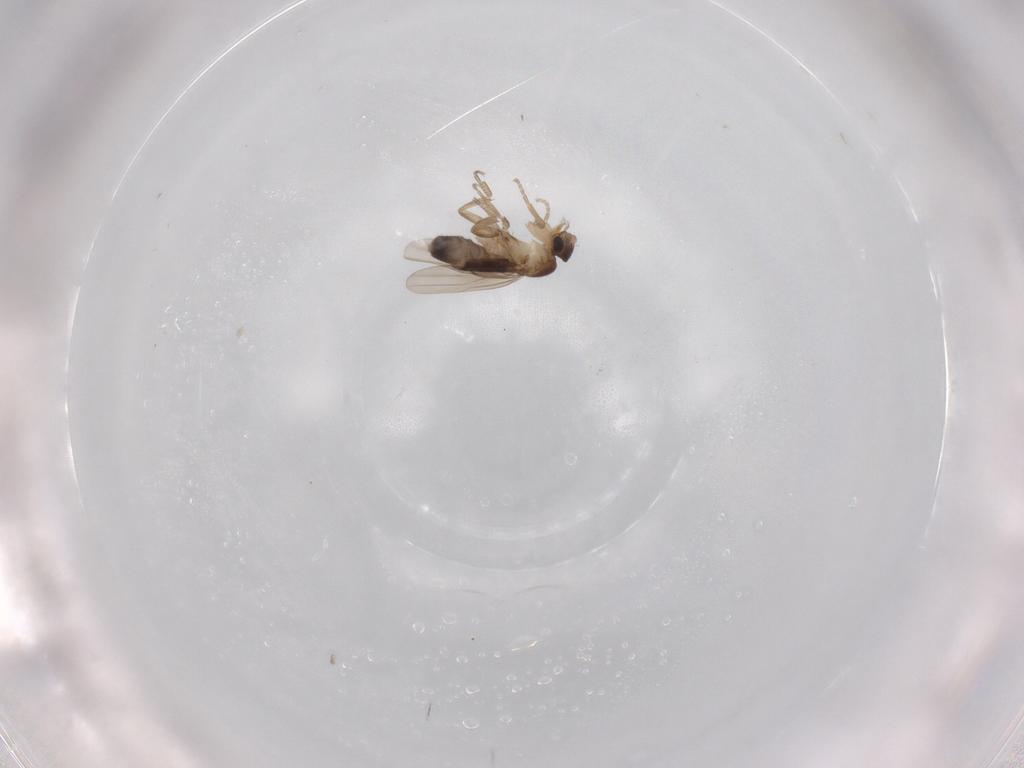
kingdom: Animalia
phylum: Arthropoda
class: Insecta
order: Diptera
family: Phoridae
